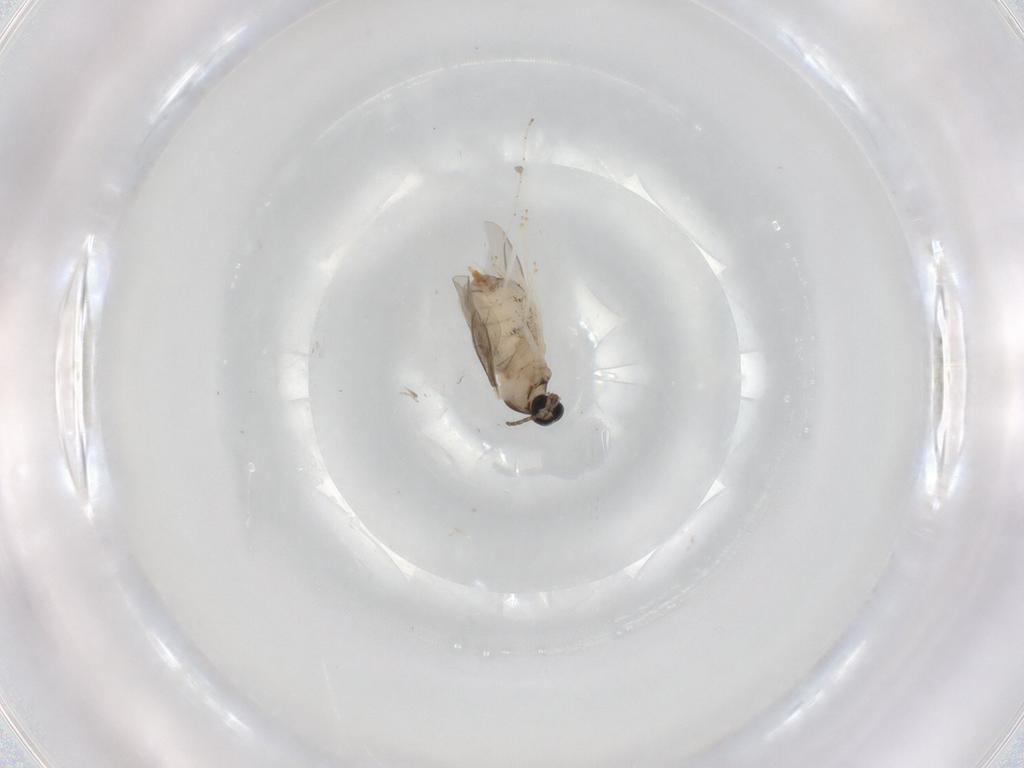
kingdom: Animalia
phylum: Arthropoda
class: Insecta
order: Diptera
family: Cecidomyiidae
